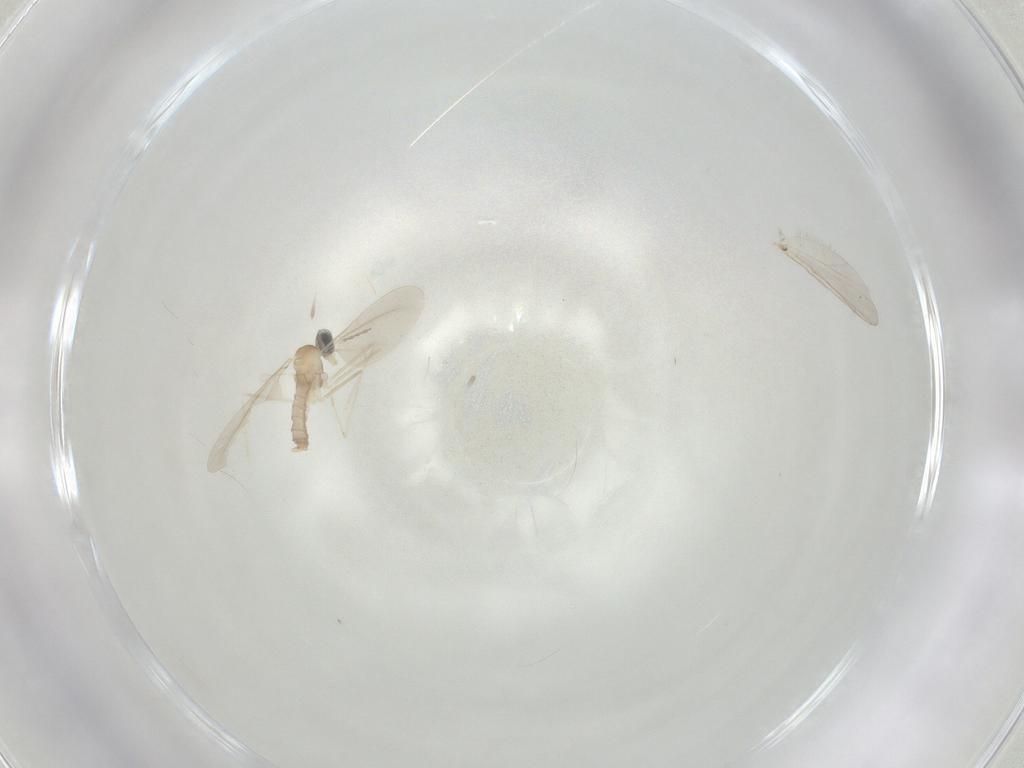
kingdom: Animalia
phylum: Arthropoda
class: Insecta
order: Diptera
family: Cecidomyiidae
